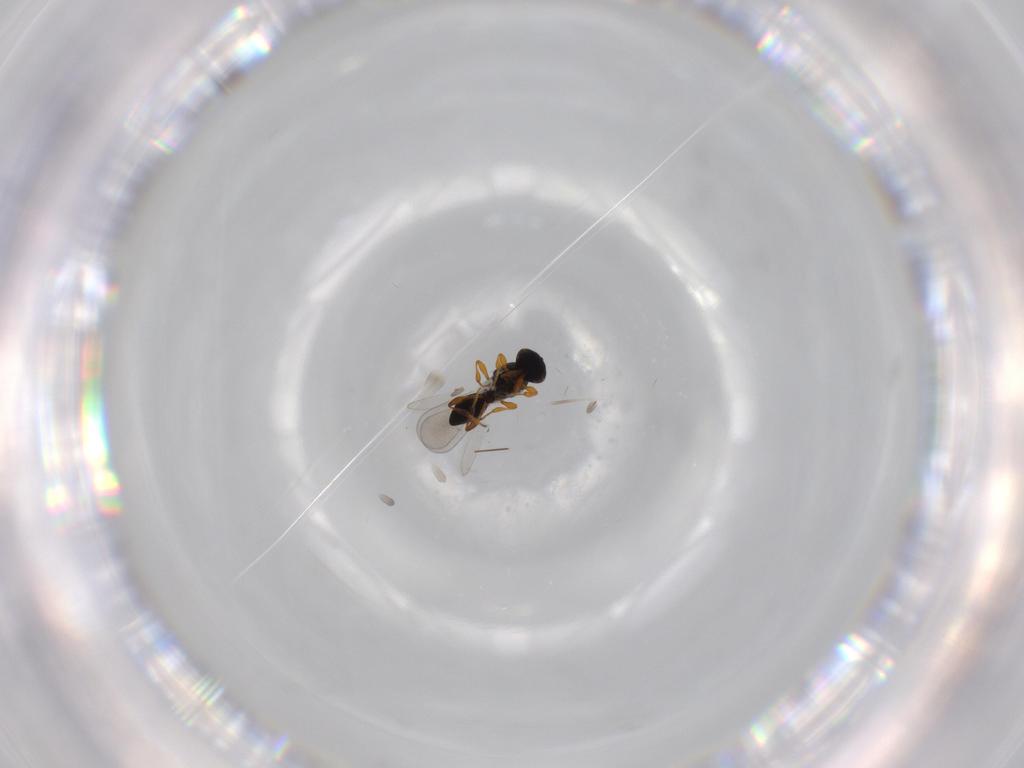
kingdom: Animalia
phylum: Arthropoda
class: Insecta
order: Hymenoptera
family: Platygastridae
